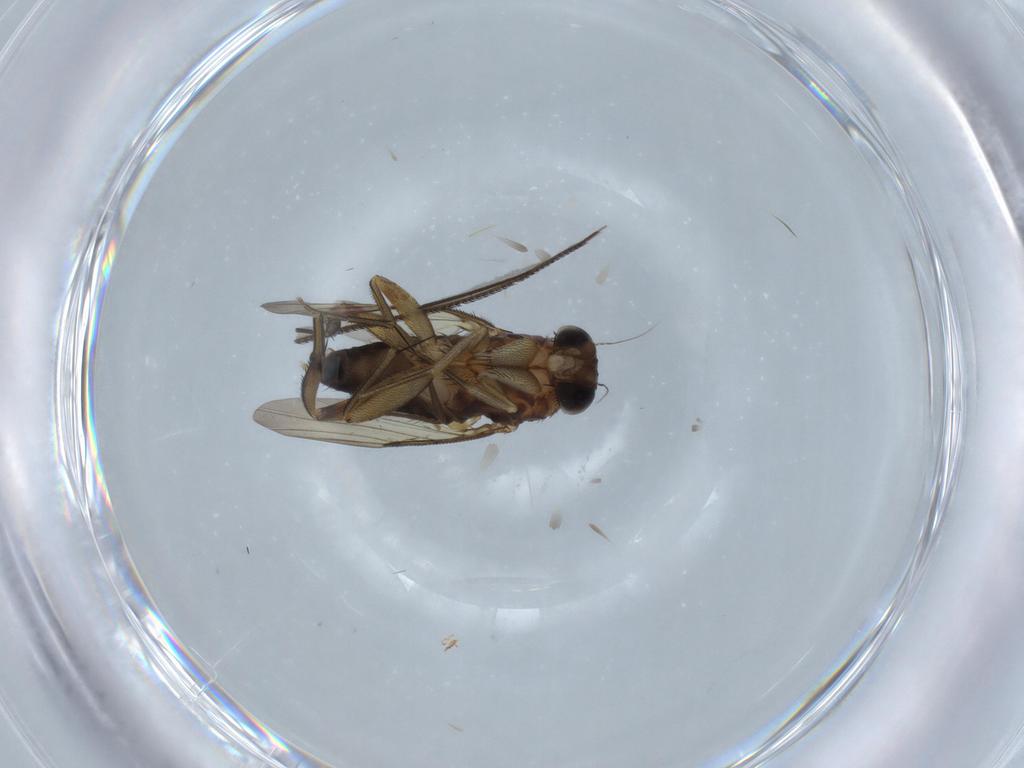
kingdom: Animalia
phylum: Arthropoda
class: Insecta
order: Diptera
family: Phoridae
